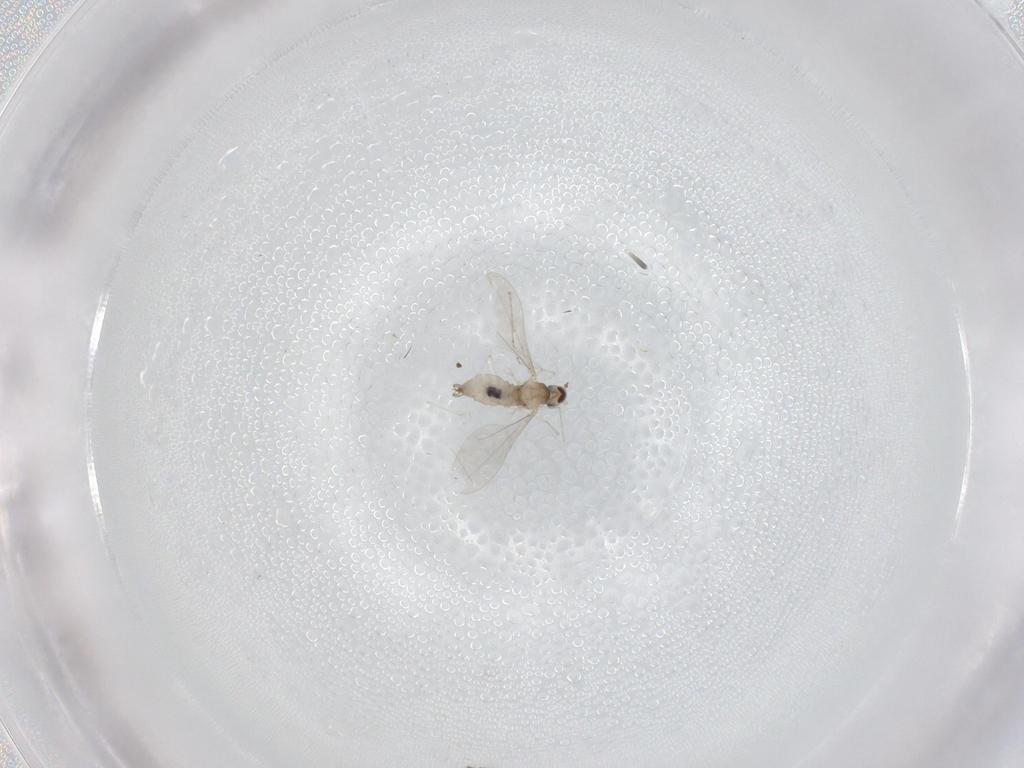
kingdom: Animalia
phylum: Arthropoda
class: Insecta
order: Diptera
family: Cecidomyiidae
